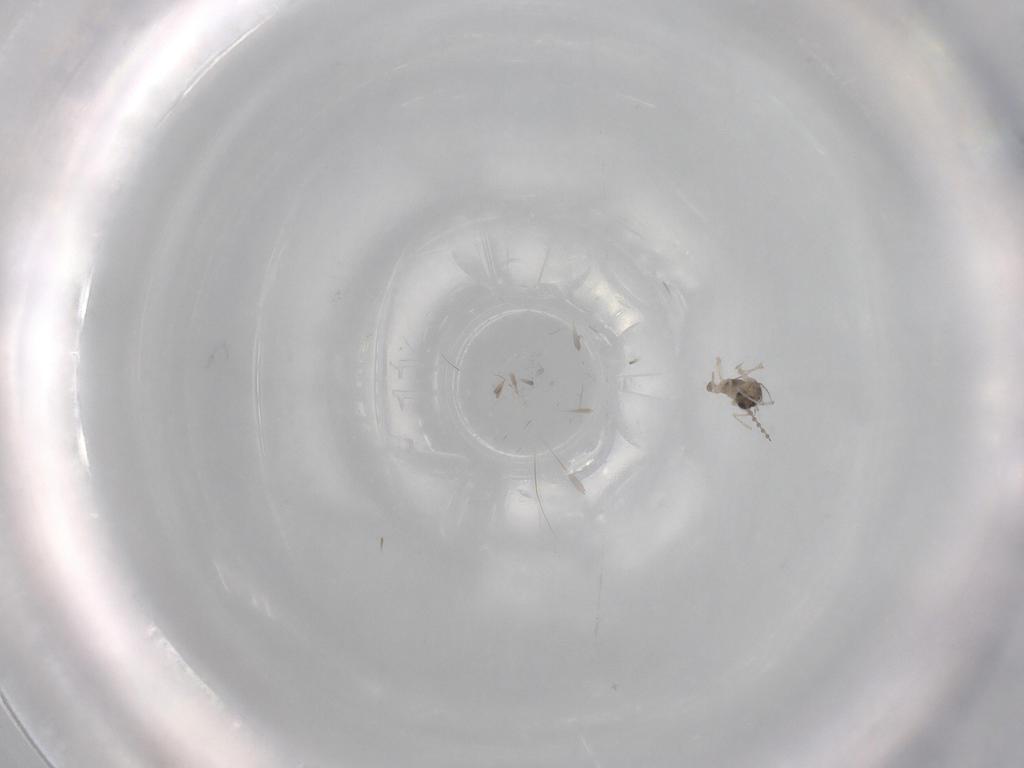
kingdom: Animalia
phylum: Arthropoda
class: Insecta
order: Diptera
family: Cecidomyiidae
